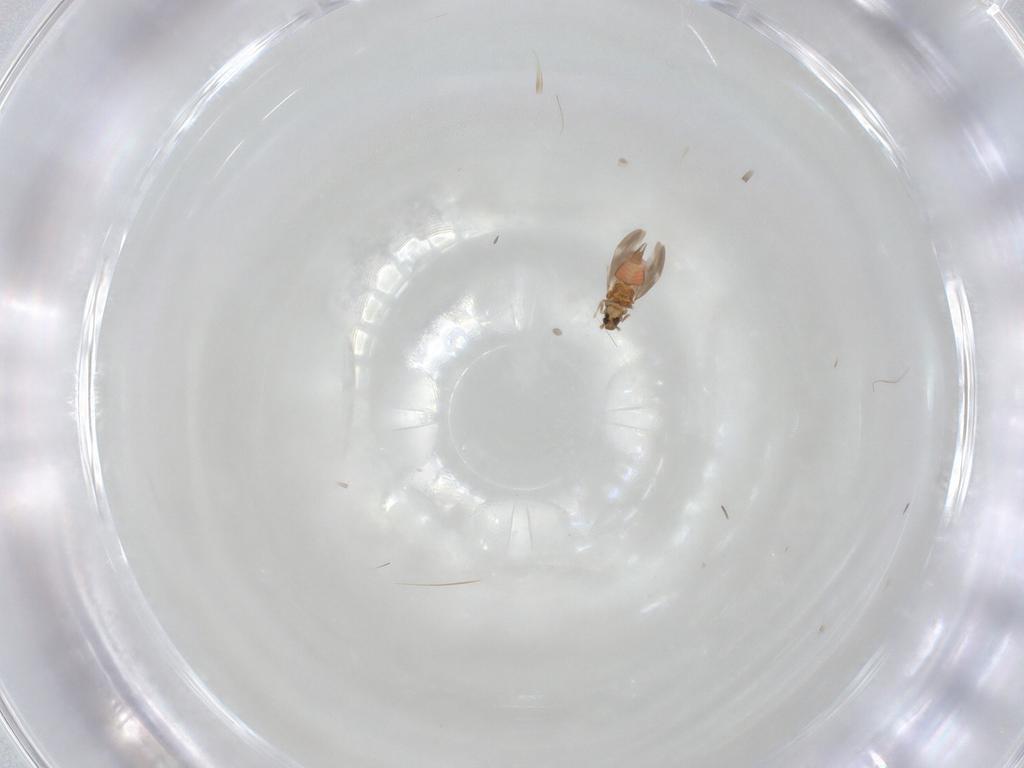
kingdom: Animalia
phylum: Arthropoda
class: Insecta
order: Hemiptera
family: Aleyrodidae
